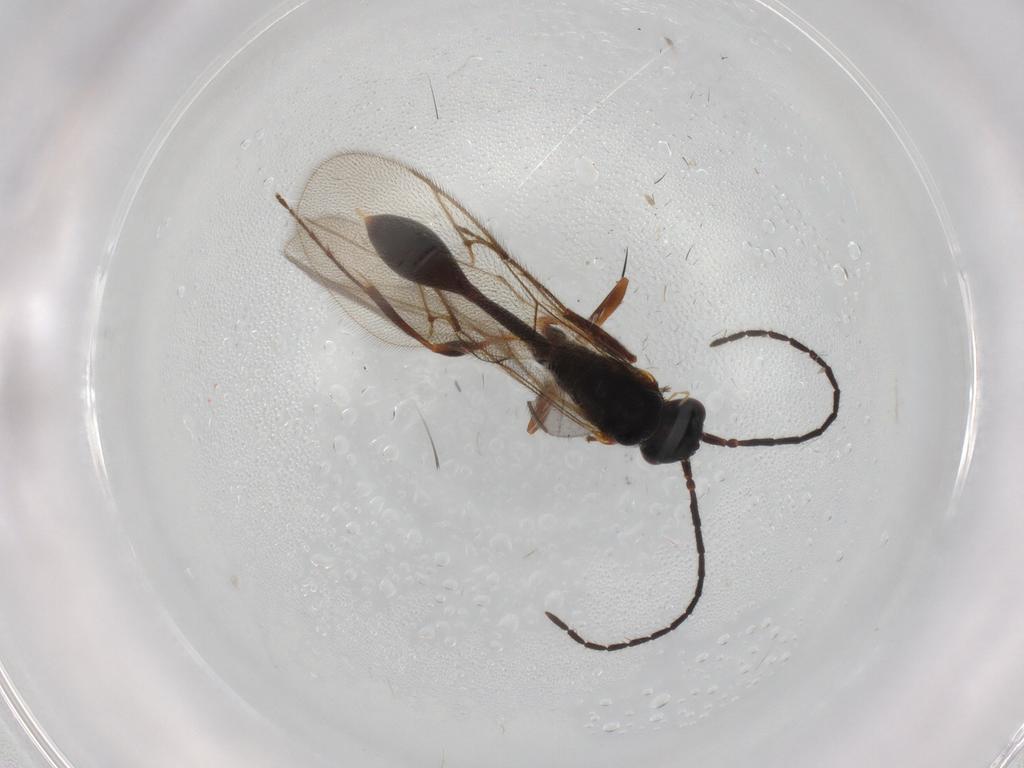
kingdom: Animalia
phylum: Arthropoda
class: Insecta
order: Hymenoptera
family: Diapriidae
